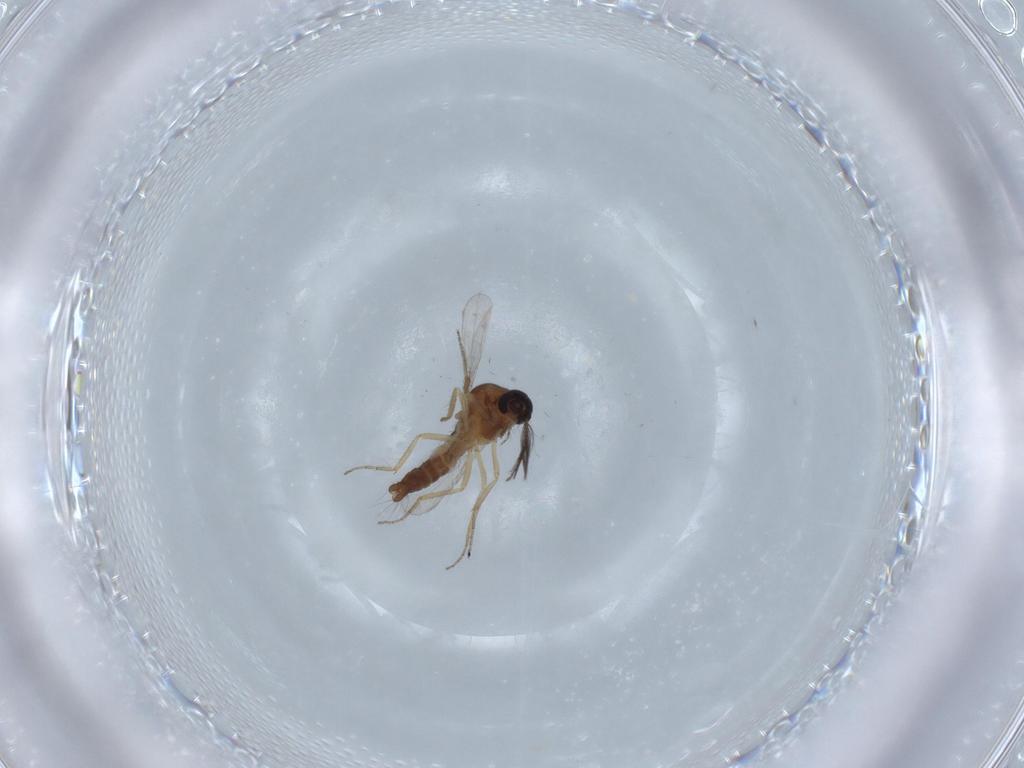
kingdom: Animalia
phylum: Arthropoda
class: Insecta
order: Diptera
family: Ceratopogonidae
